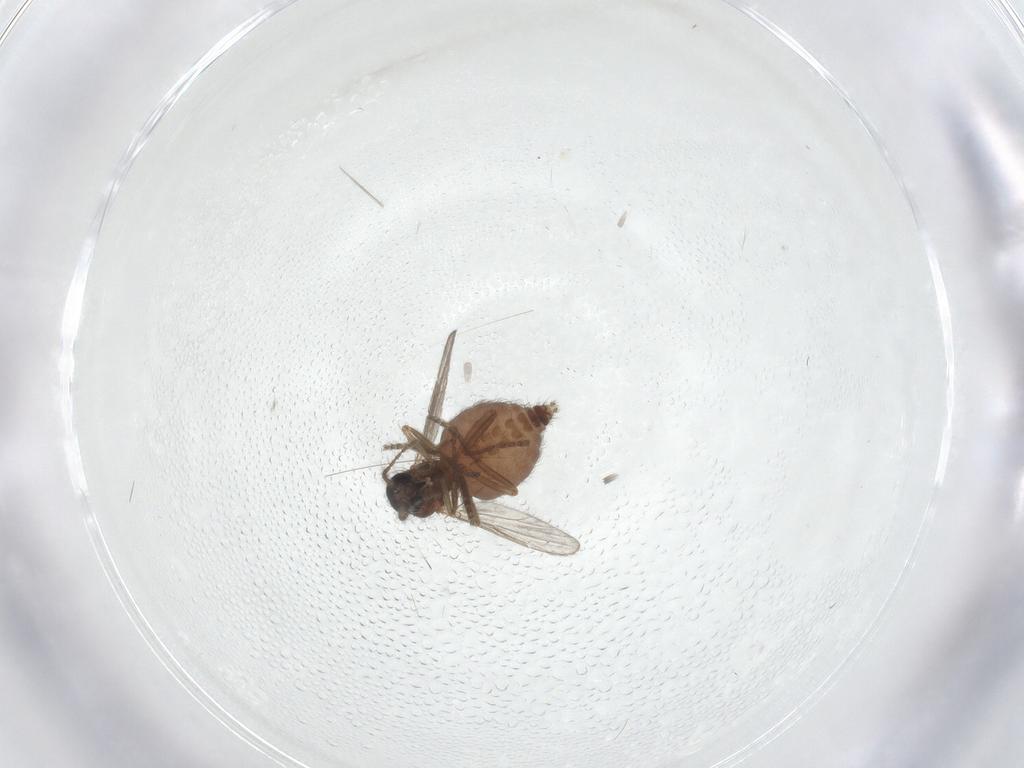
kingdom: Animalia
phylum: Arthropoda
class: Insecta
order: Diptera
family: Ceratopogonidae
